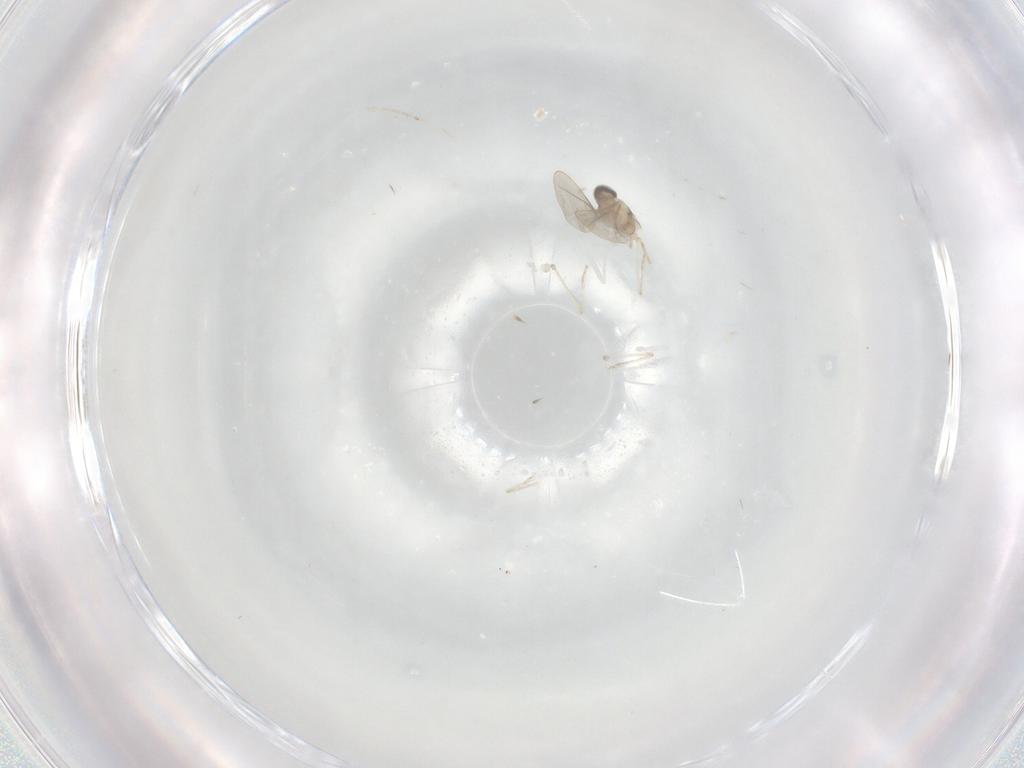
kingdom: Animalia
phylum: Arthropoda
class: Insecta
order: Diptera
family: Cecidomyiidae
